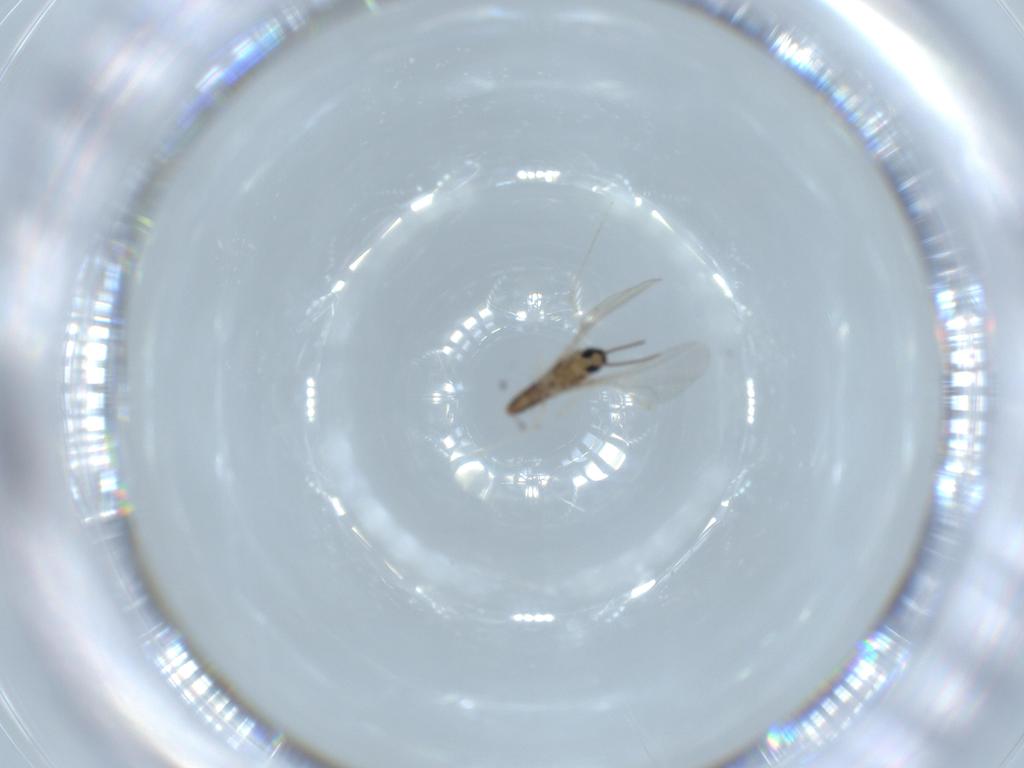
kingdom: Animalia
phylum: Arthropoda
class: Insecta
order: Diptera
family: Cecidomyiidae
